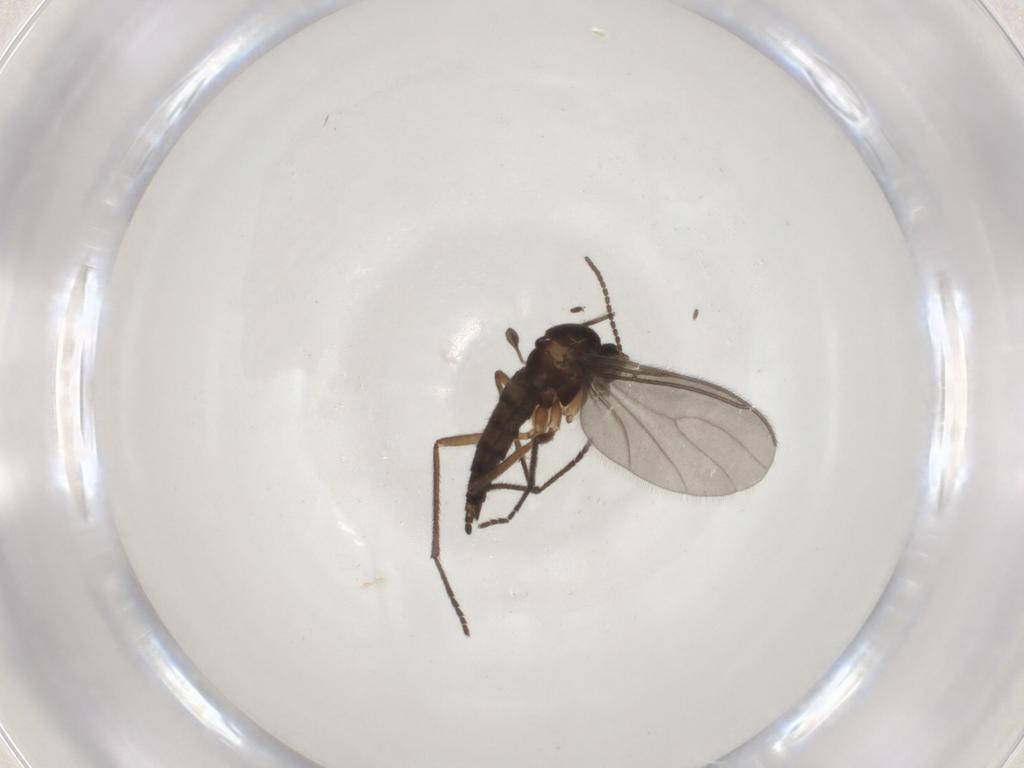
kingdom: Animalia
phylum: Arthropoda
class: Insecta
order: Diptera
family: Sciaridae
